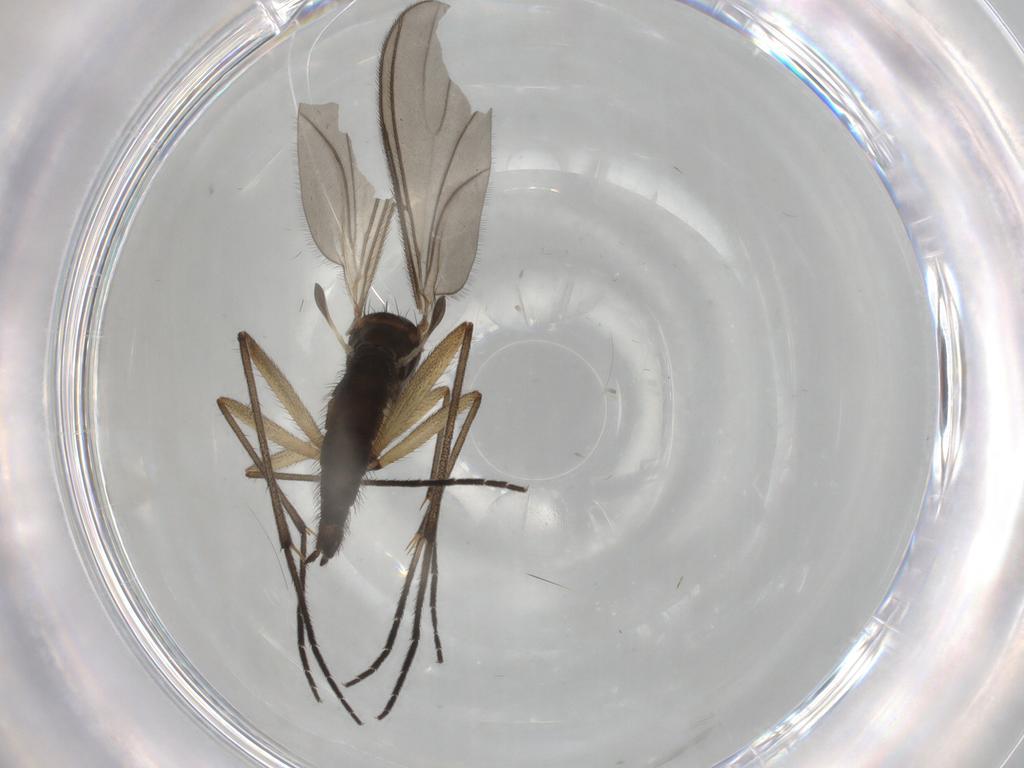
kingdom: Animalia
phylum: Arthropoda
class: Insecta
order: Diptera
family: Sciaridae
